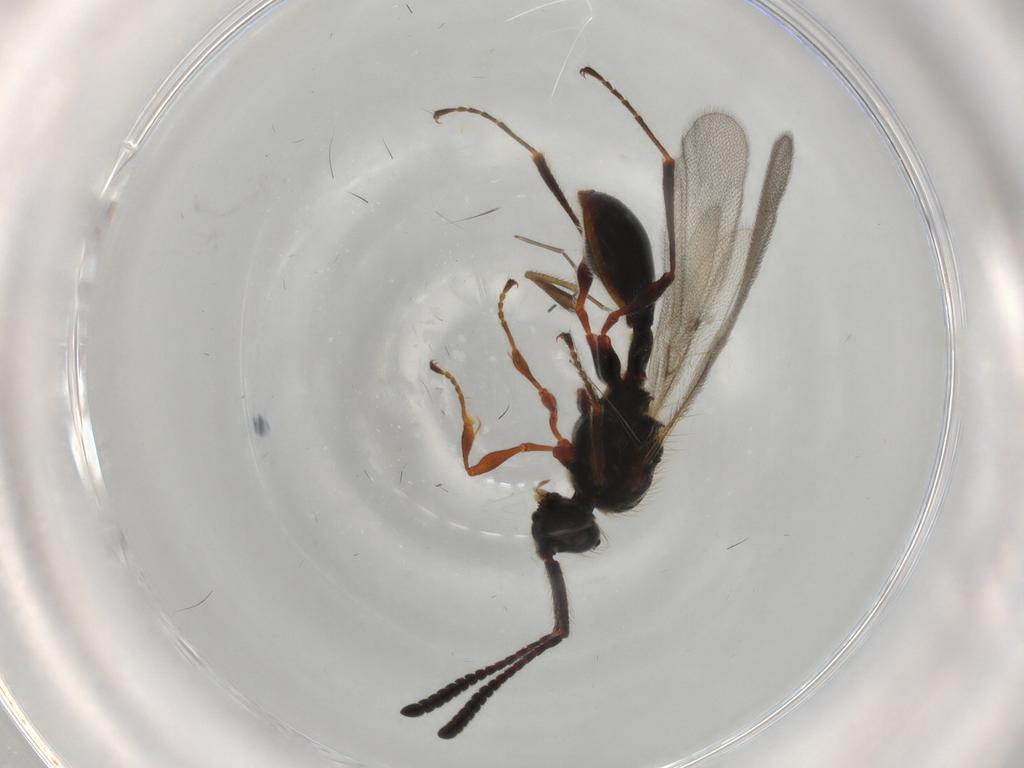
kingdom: Animalia
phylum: Arthropoda
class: Insecta
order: Hymenoptera
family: Diapriidae
